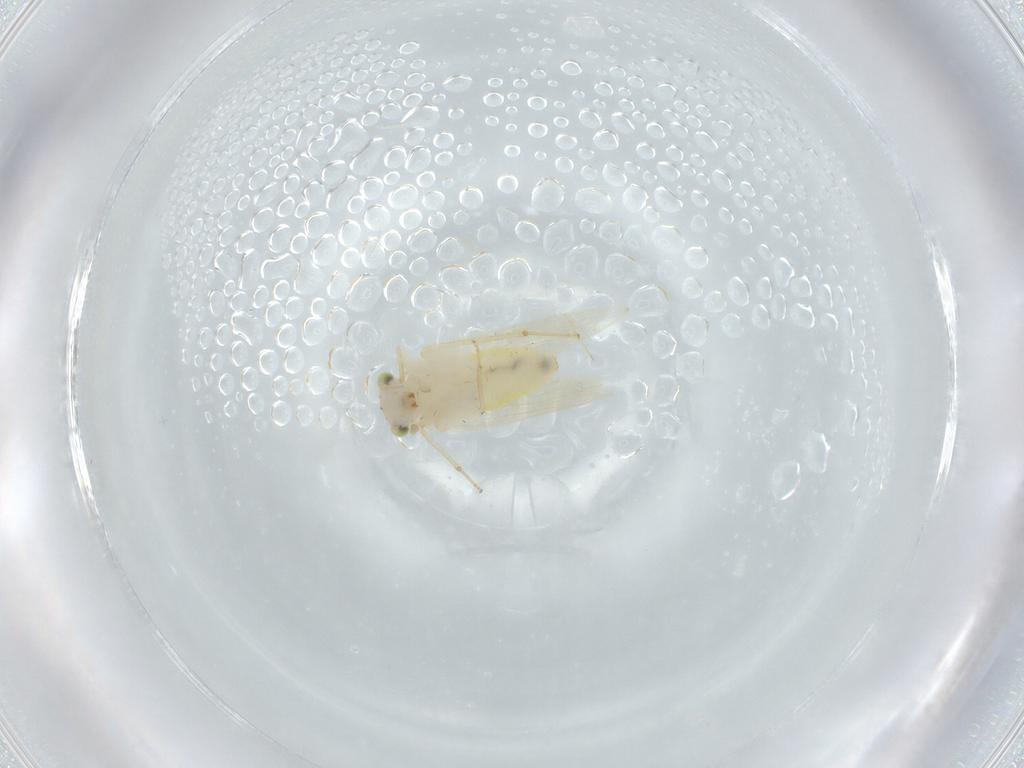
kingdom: Animalia
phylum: Arthropoda
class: Insecta
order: Psocodea
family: Lepidopsocidae
